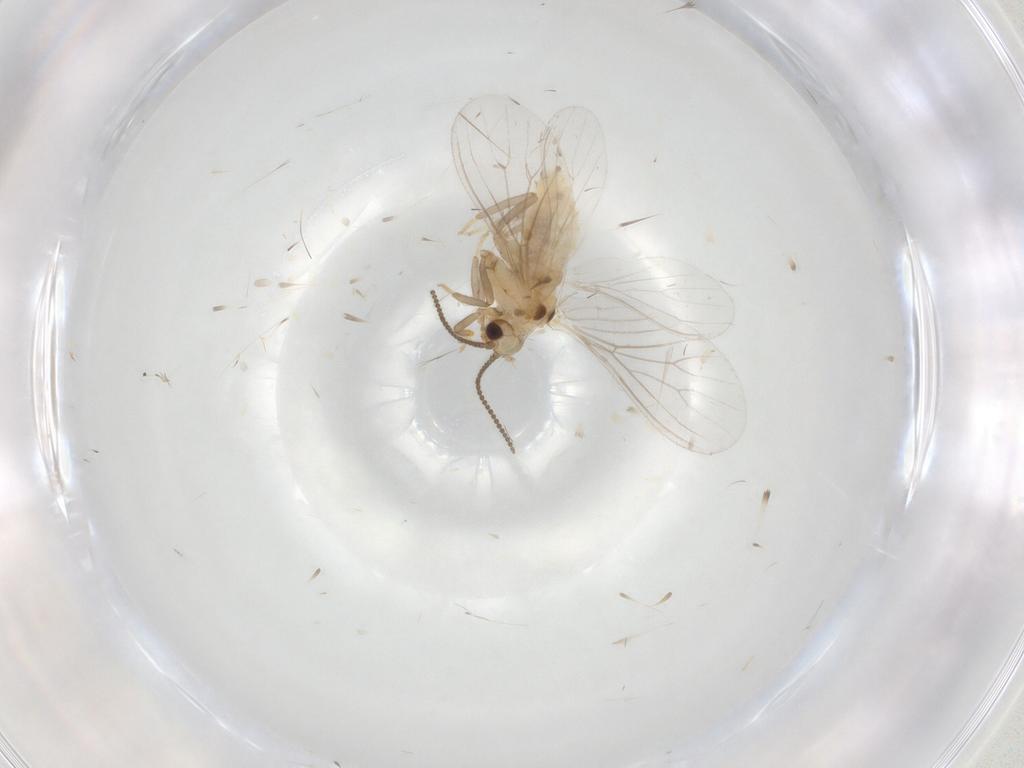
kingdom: Animalia
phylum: Arthropoda
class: Insecta
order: Neuroptera
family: Coniopterygidae
